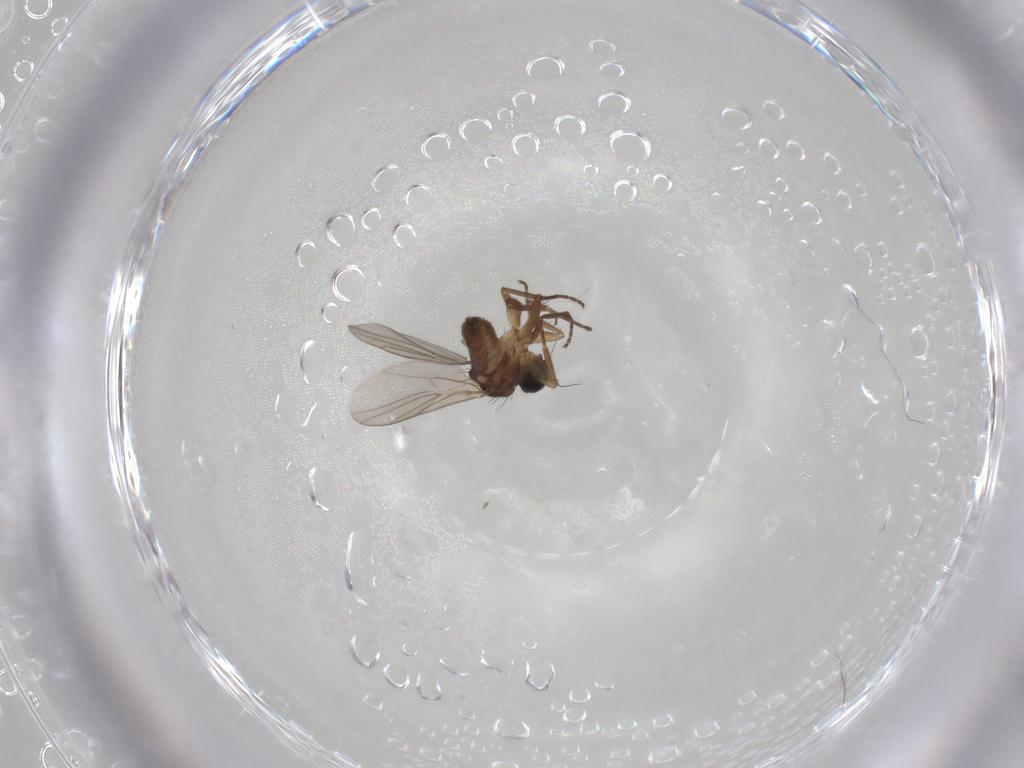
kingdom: Animalia
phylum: Arthropoda
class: Insecta
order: Diptera
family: Hybotidae
